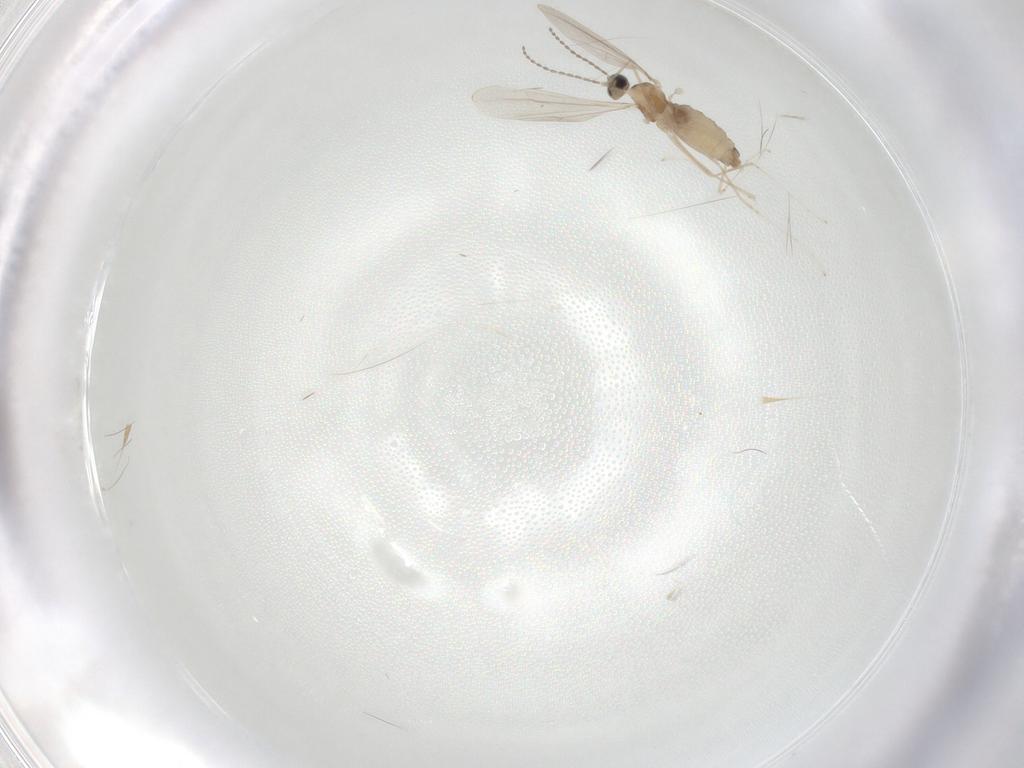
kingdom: Animalia
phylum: Arthropoda
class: Insecta
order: Diptera
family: Cecidomyiidae
